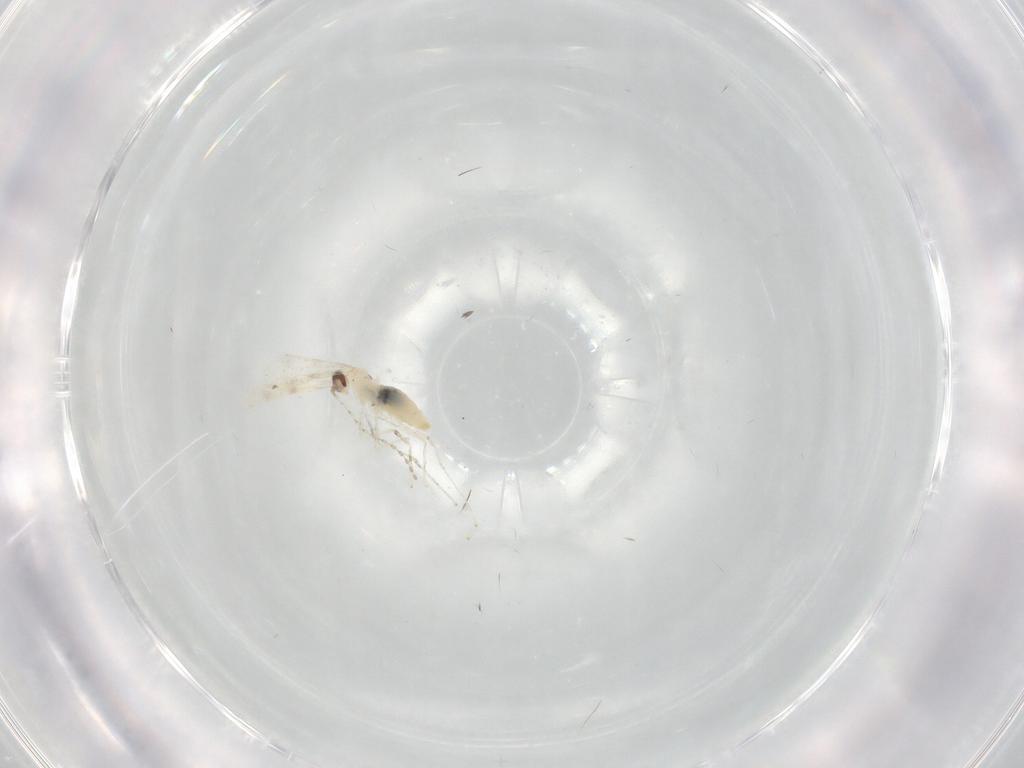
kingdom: Animalia
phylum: Arthropoda
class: Insecta
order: Diptera
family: Cecidomyiidae
